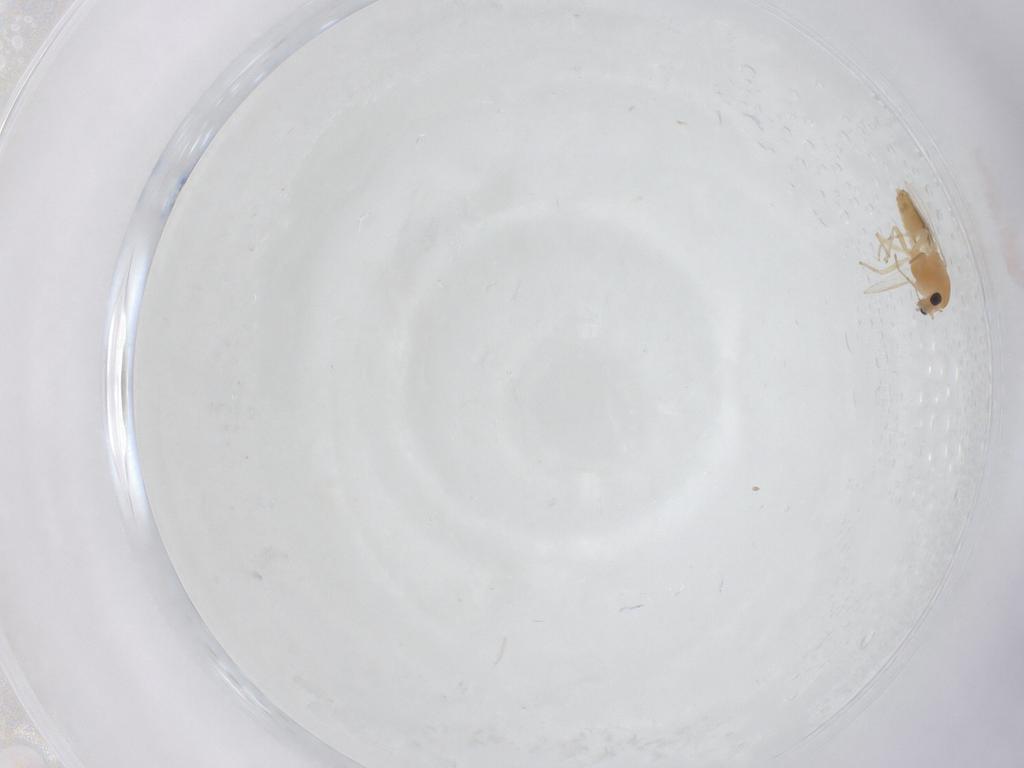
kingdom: Animalia
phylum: Arthropoda
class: Insecta
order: Diptera
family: Chironomidae
